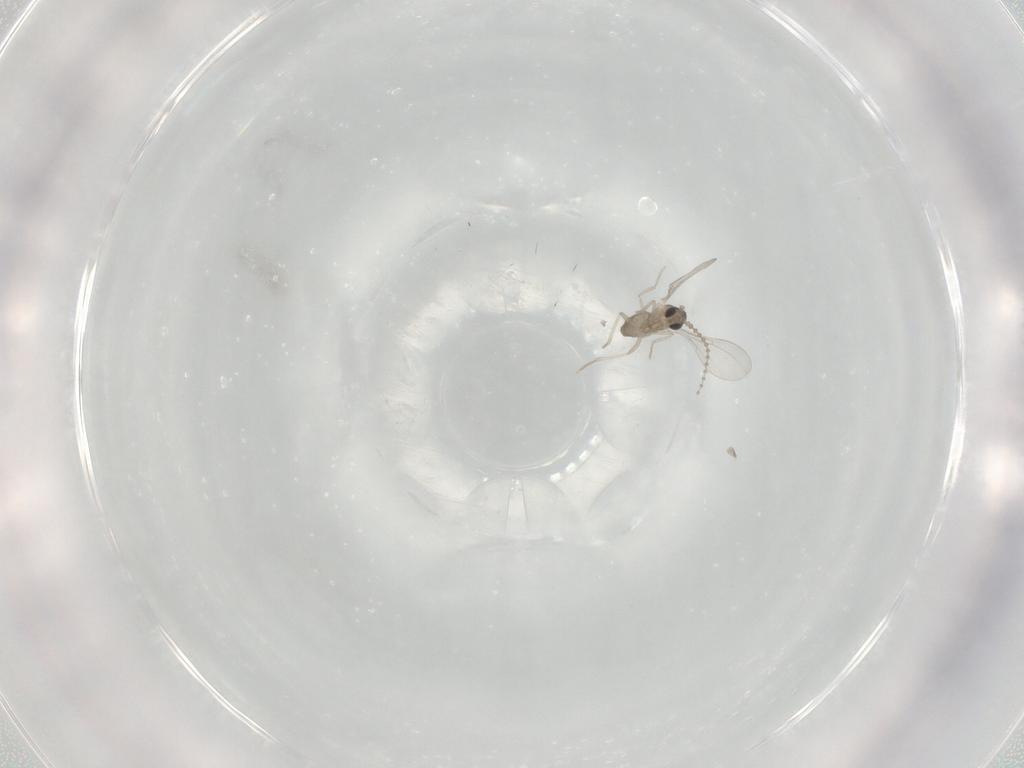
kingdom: Animalia
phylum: Arthropoda
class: Insecta
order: Diptera
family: Cecidomyiidae
